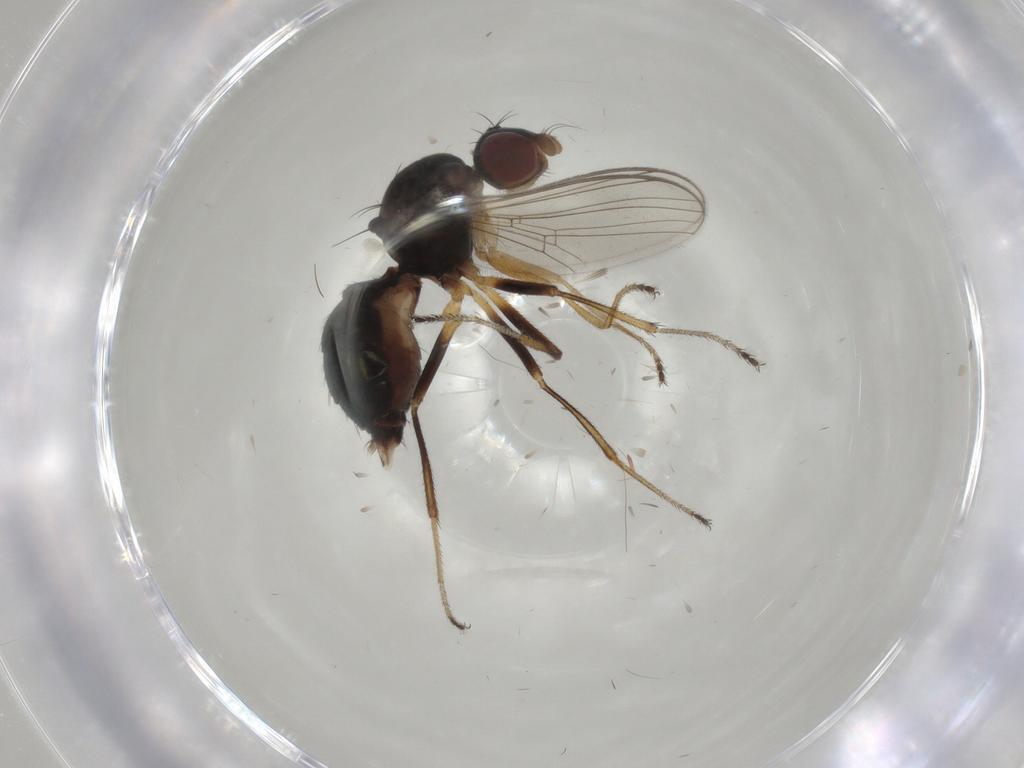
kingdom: Animalia
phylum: Arthropoda
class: Insecta
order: Diptera
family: Sepsidae
